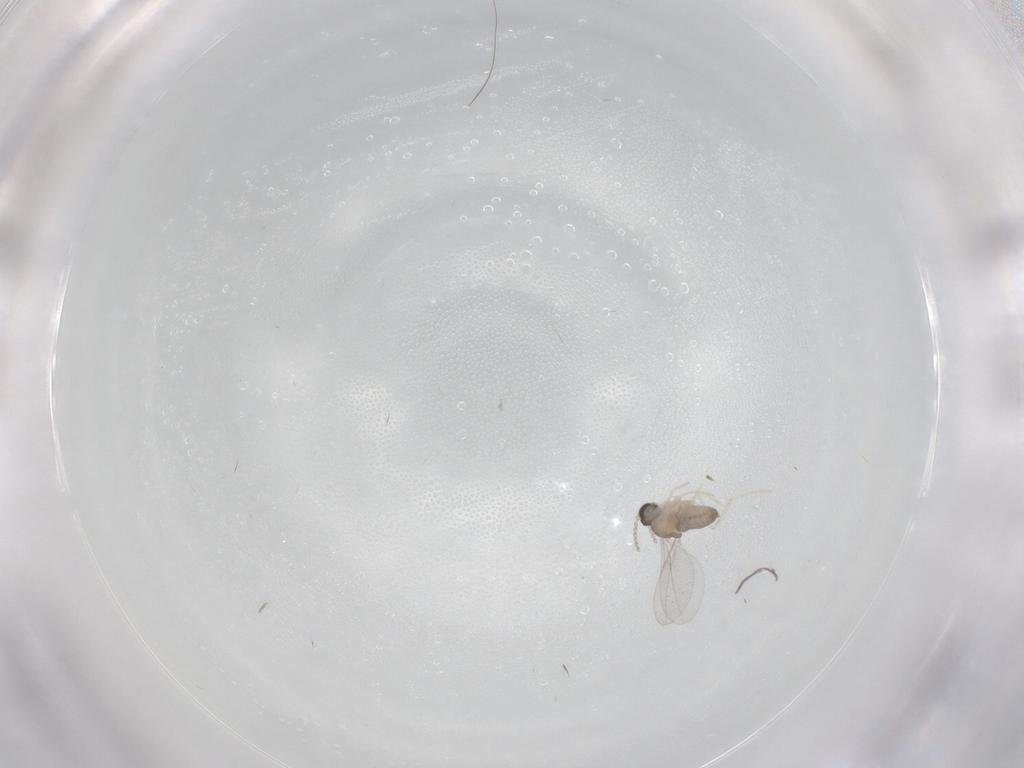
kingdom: Animalia
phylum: Arthropoda
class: Insecta
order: Diptera
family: Cecidomyiidae
